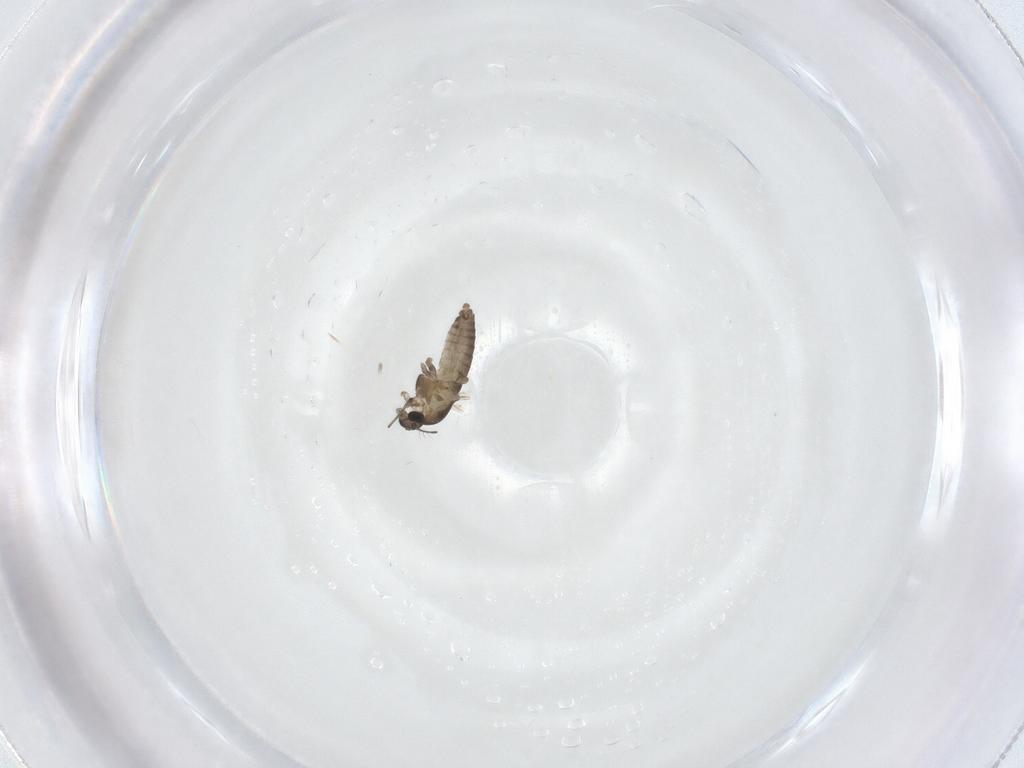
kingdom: Animalia
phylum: Arthropoda
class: Insecta
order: Diptera
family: Chironomidae
